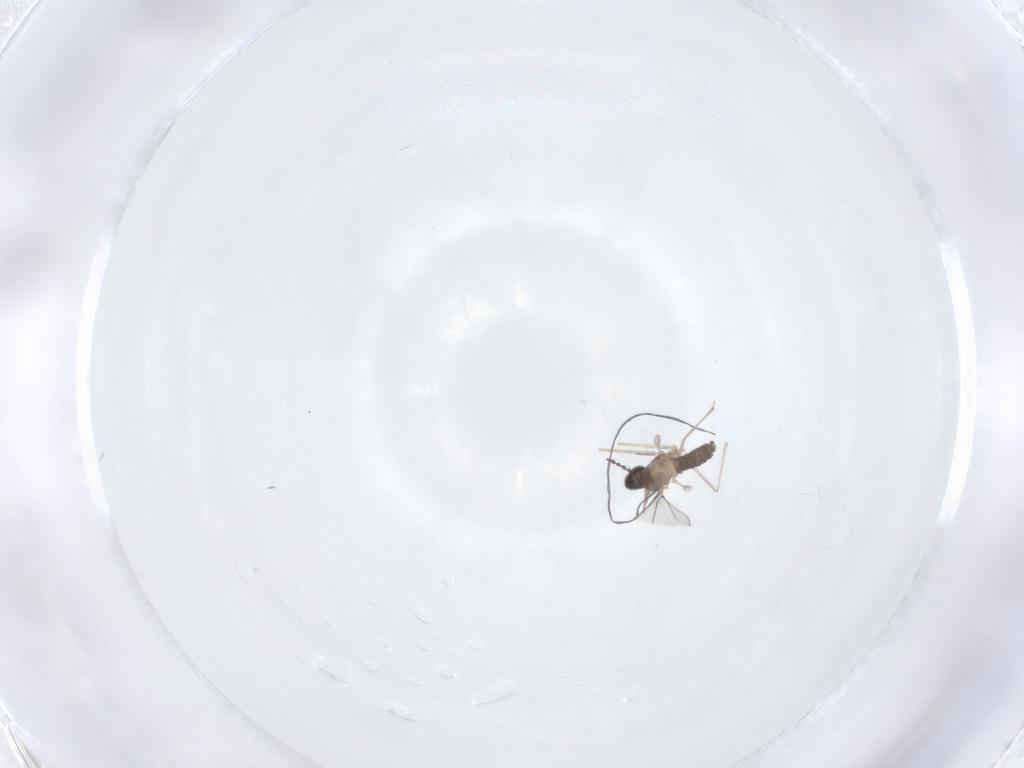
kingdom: Animalia
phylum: Arthropoda
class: Insecta
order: Diptera
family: Cecidomyiidae
